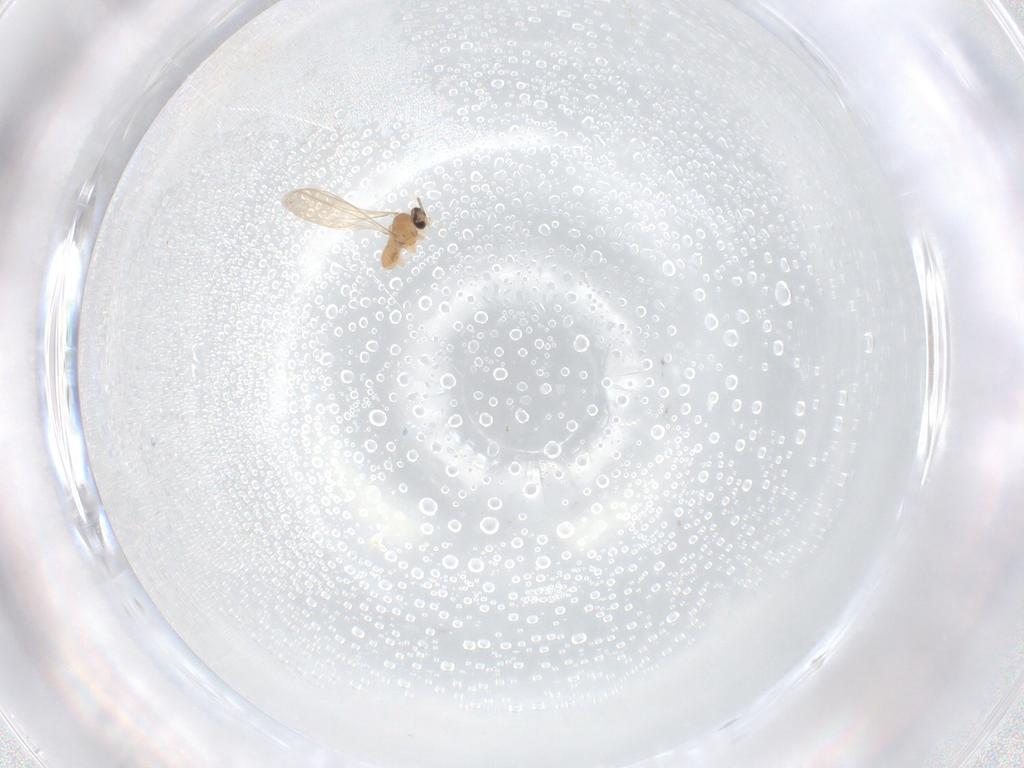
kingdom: Animalia
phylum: Arthropoda
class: Insecta
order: Diptera
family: Cecidomyiidae
